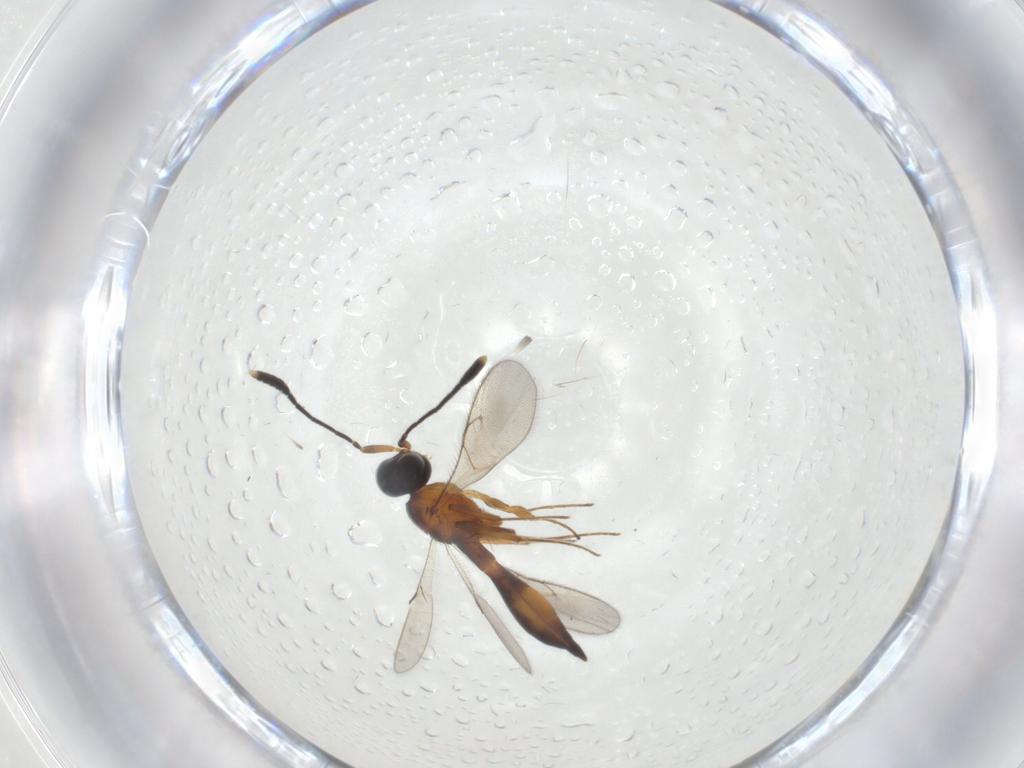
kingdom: Animalia
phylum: Arthropoda
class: Insecta
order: Hymenoptera
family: Scelionidae
